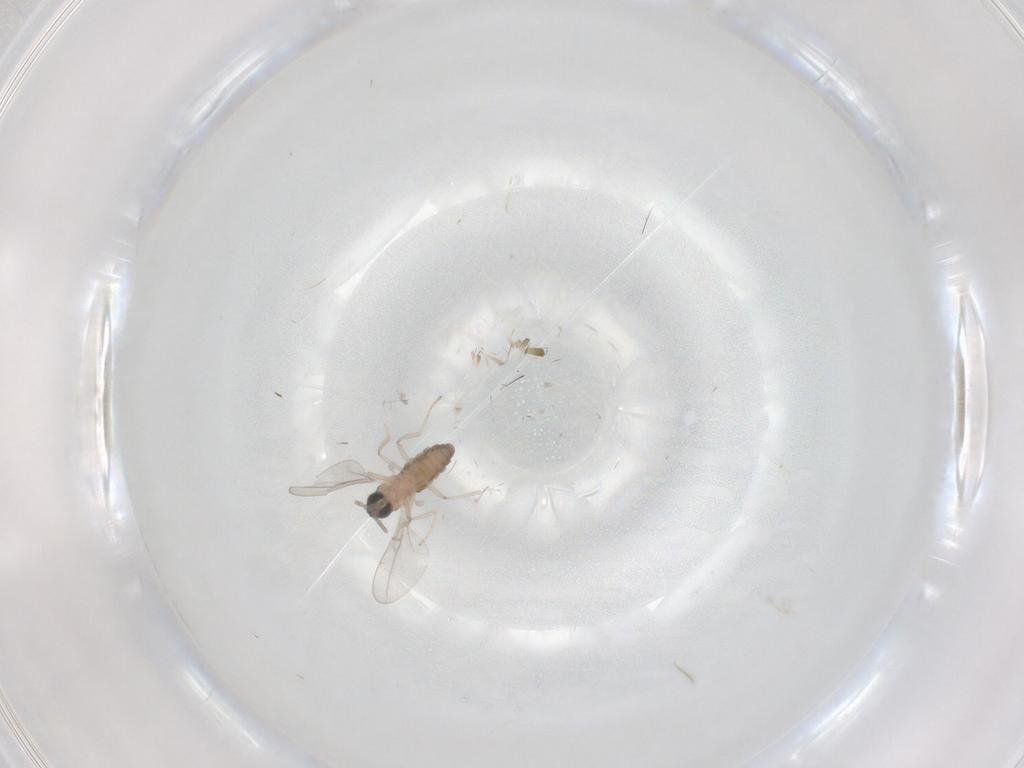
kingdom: Animalia
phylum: Arthropoda
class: Insecta
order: Diptera
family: Cecidomyiidae
